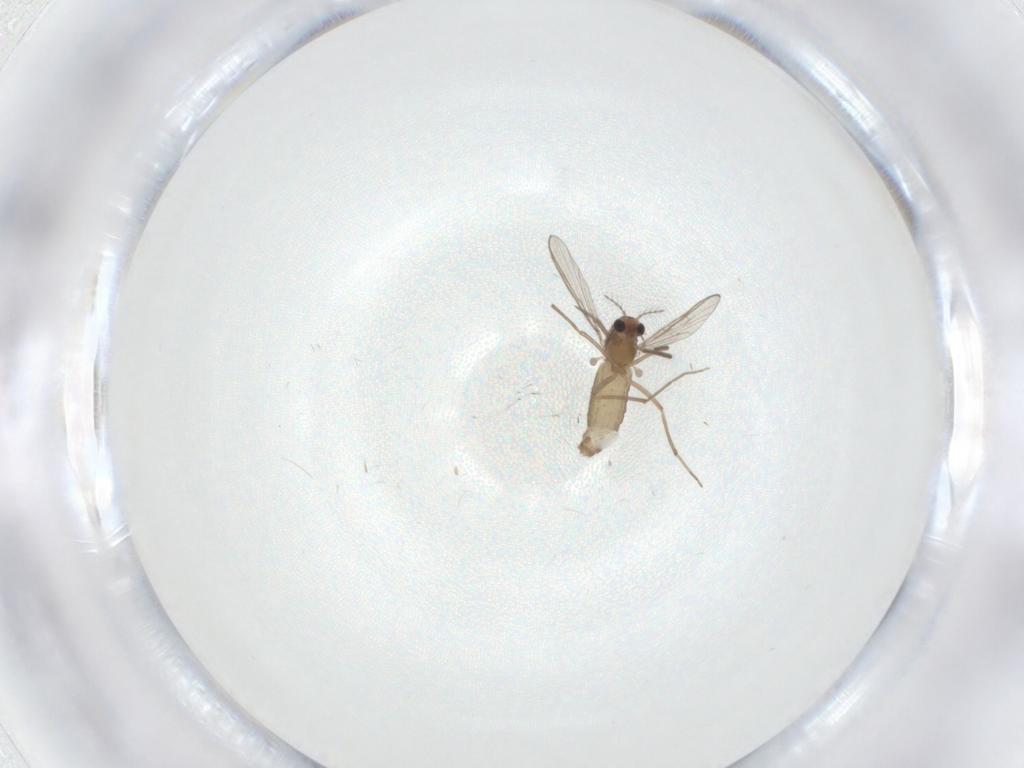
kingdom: Animalia
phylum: Arthropoda
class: Insecta
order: Diptera
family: Chironomidae
